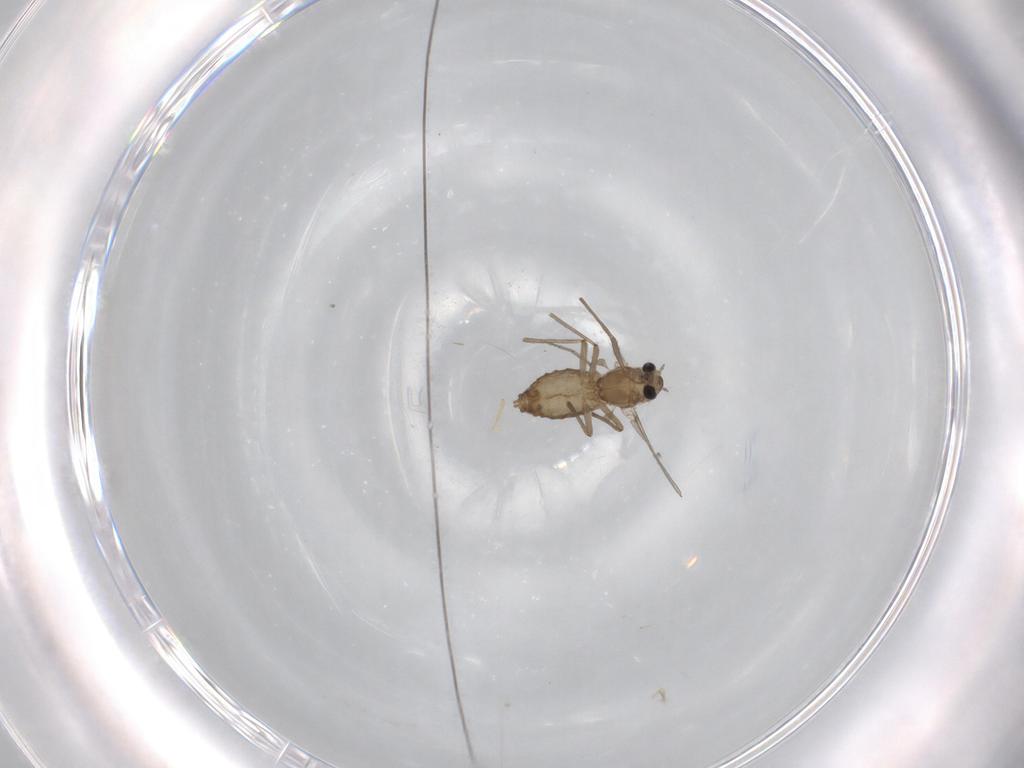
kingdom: Animalia
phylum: Arthropoda
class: Insecta
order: Diptera
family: Chironomidae
